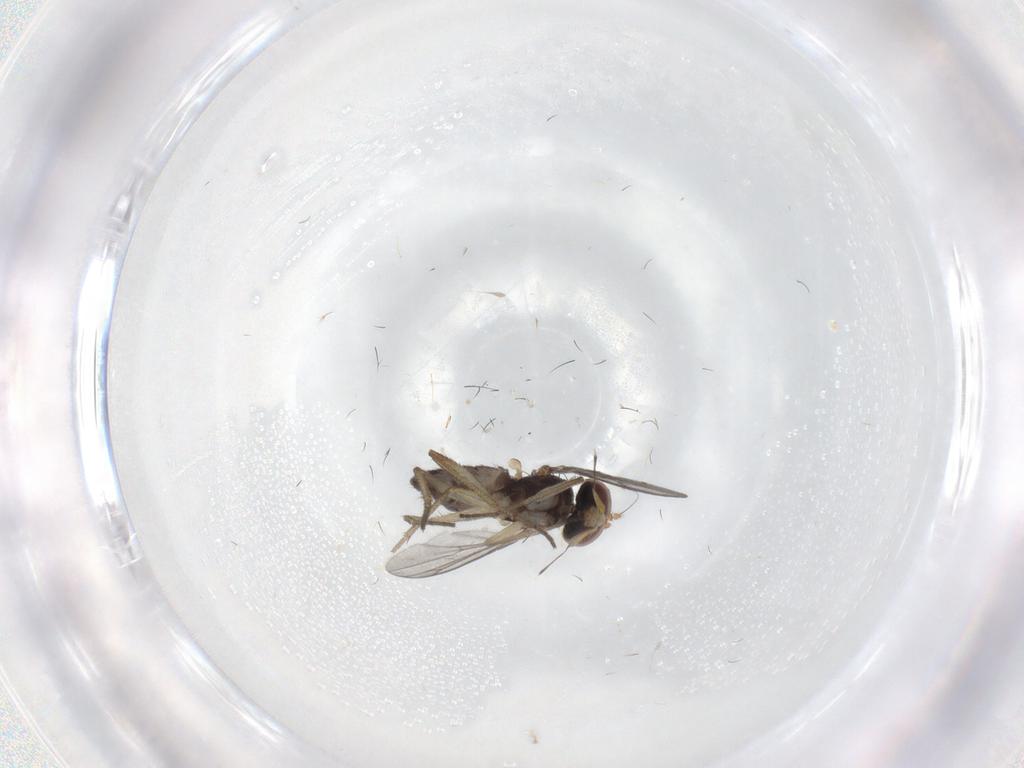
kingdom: Animalia
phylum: Arthropoda
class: Insecta
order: Diptera
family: Dolichopodidae
